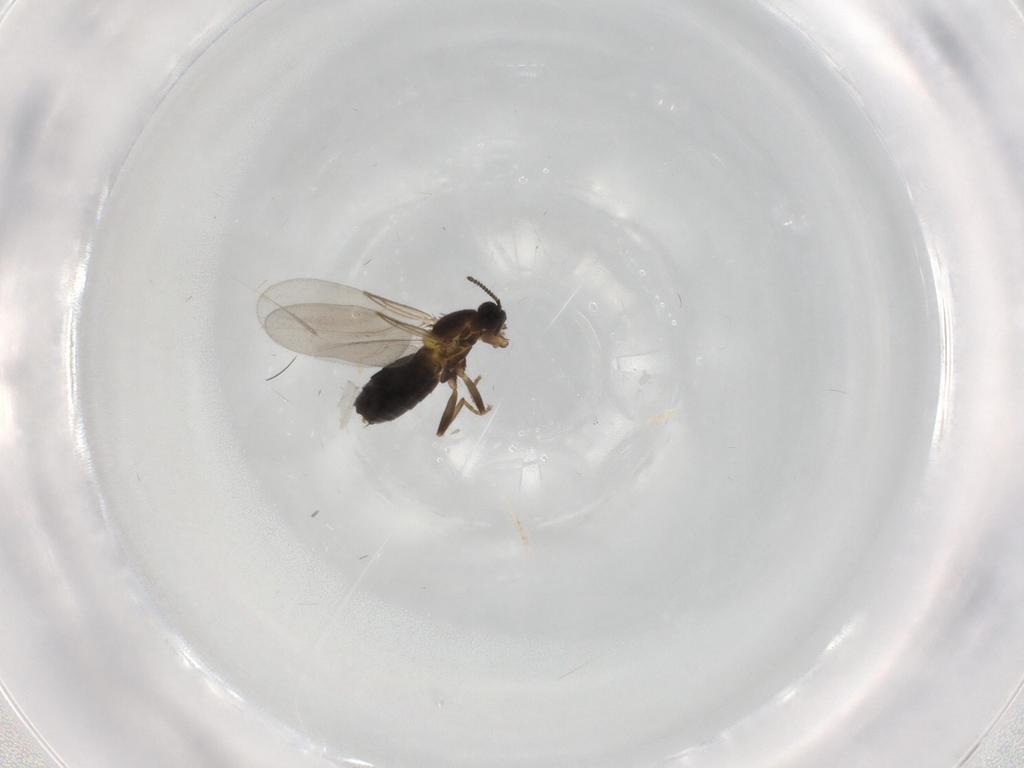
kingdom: Animalia
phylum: Arthropoda
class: Insecta
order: Diptera
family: Scatopsidae
